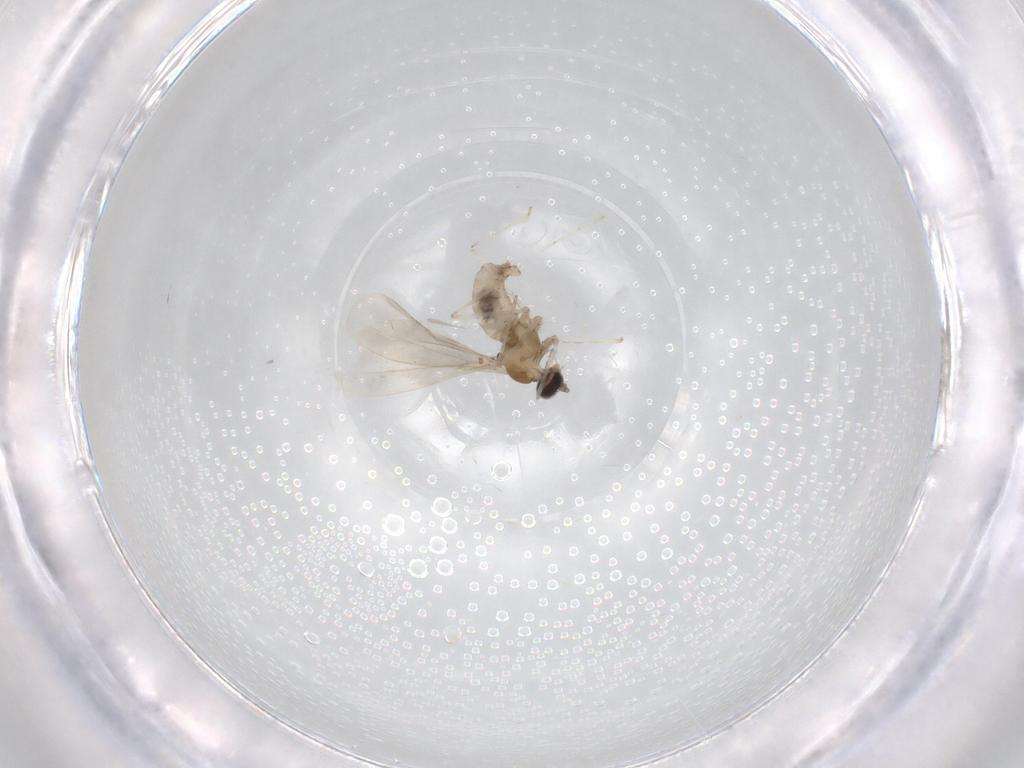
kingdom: Animalia
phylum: Arthropoda
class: Insecta
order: Diptera
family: Cecidomyiidae
